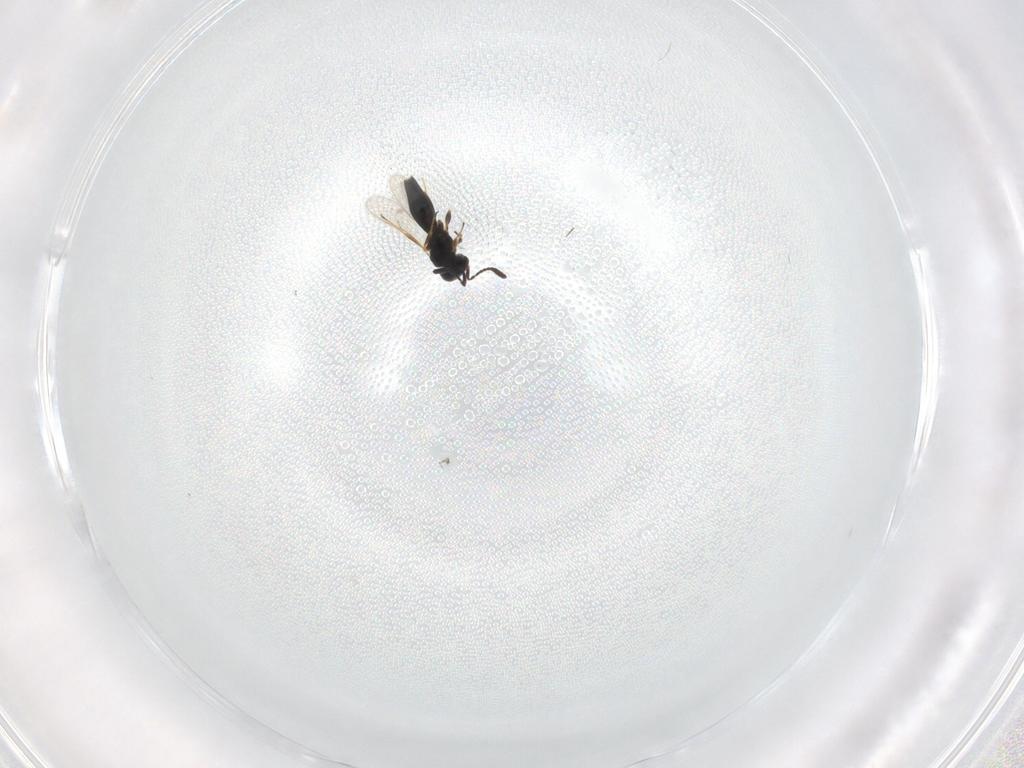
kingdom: Animalia
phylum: Arthropoda
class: Insecta
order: Hymenoptera
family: Scelionidae
